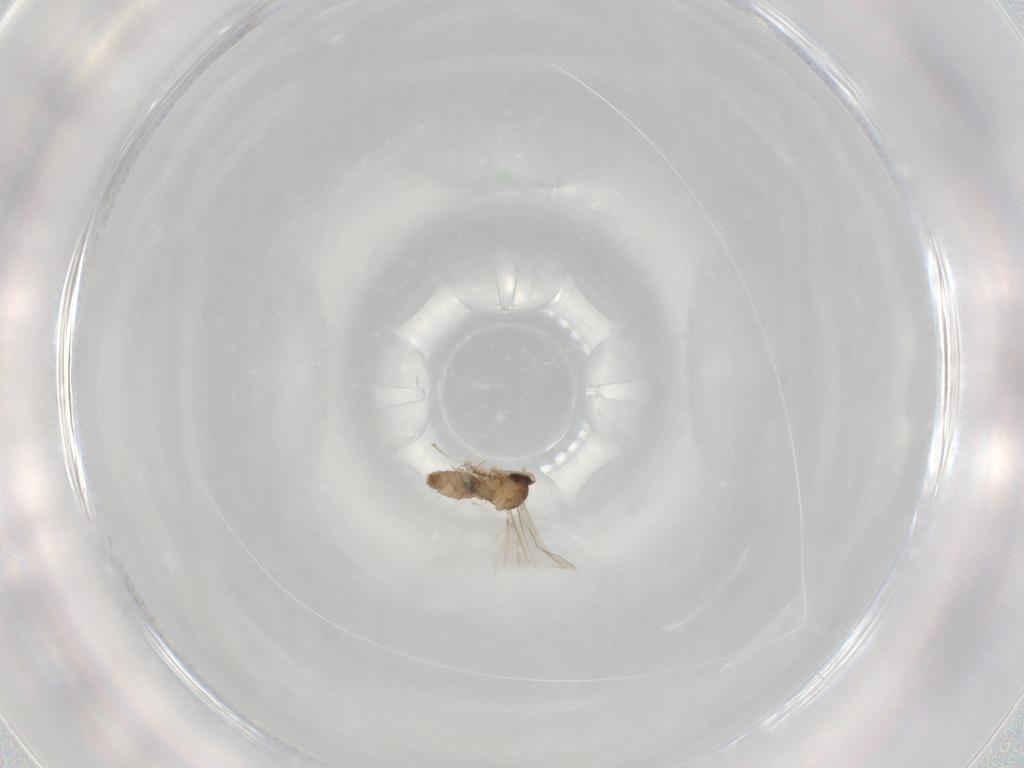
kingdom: Animalia
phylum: Arthropoda
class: Insecta
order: Diptera
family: Cecidomyiidae
